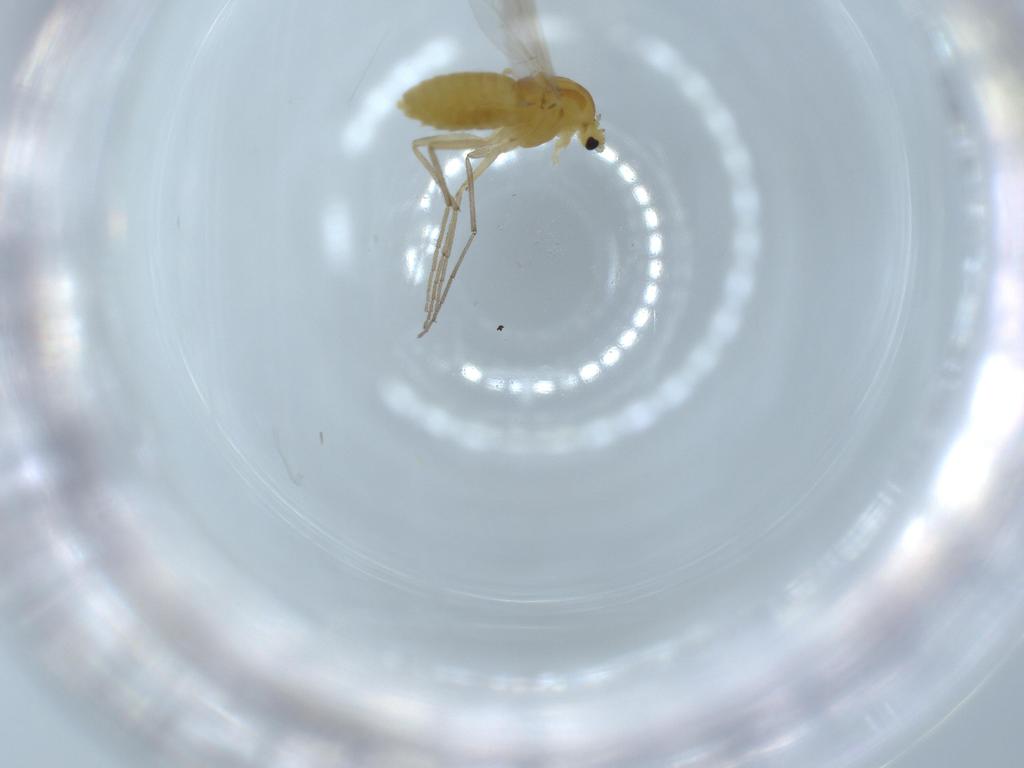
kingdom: Animalia
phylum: Arthropoda
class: Insecta
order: Diptera
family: Chironomidae
